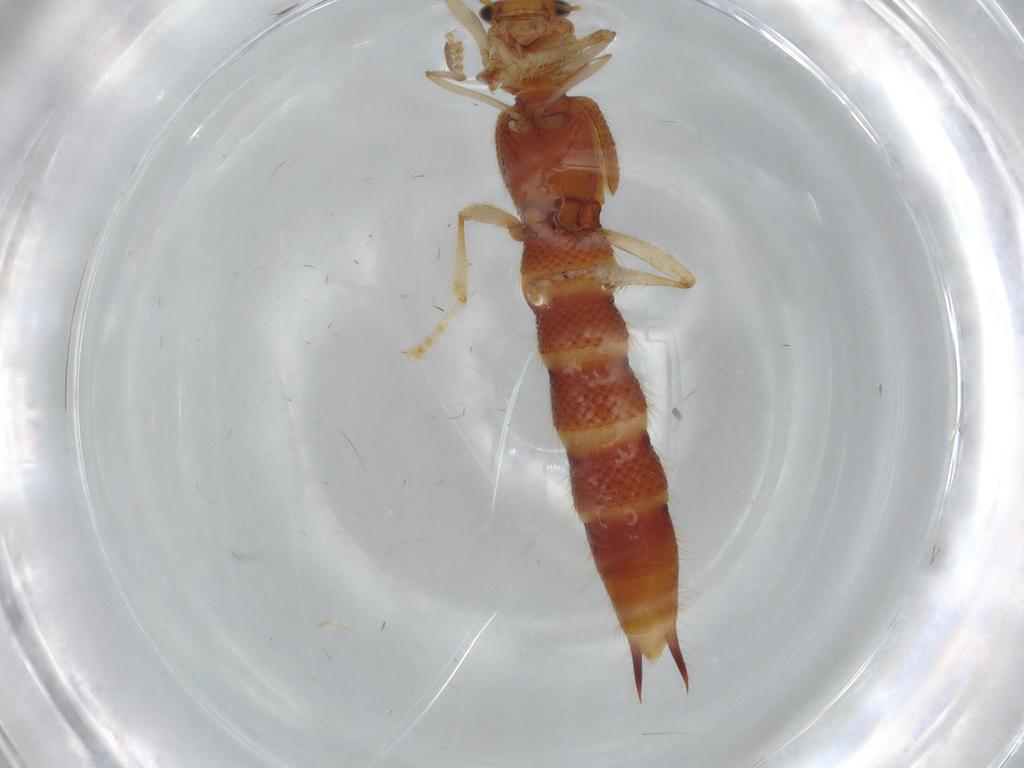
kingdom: Animalia
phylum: Arthropoda
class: Insecta
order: Coleoptera
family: Staphylinidae
